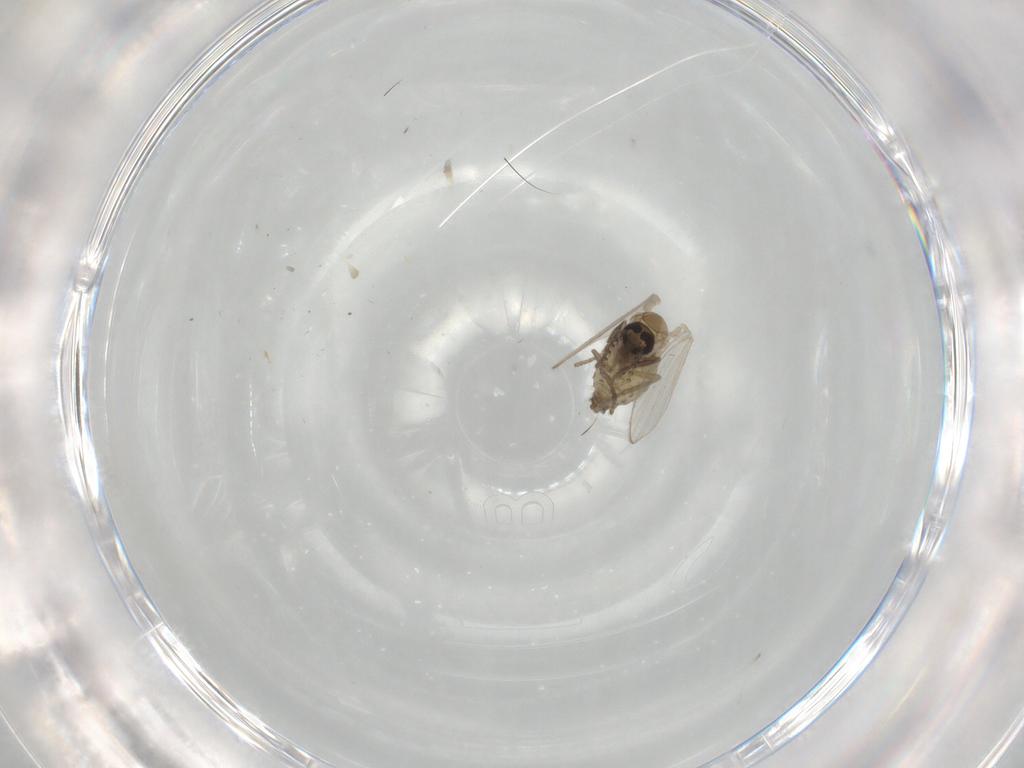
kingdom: Animalia
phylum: Arthropoda
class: Insecta
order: Diptera
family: Psychodidae
